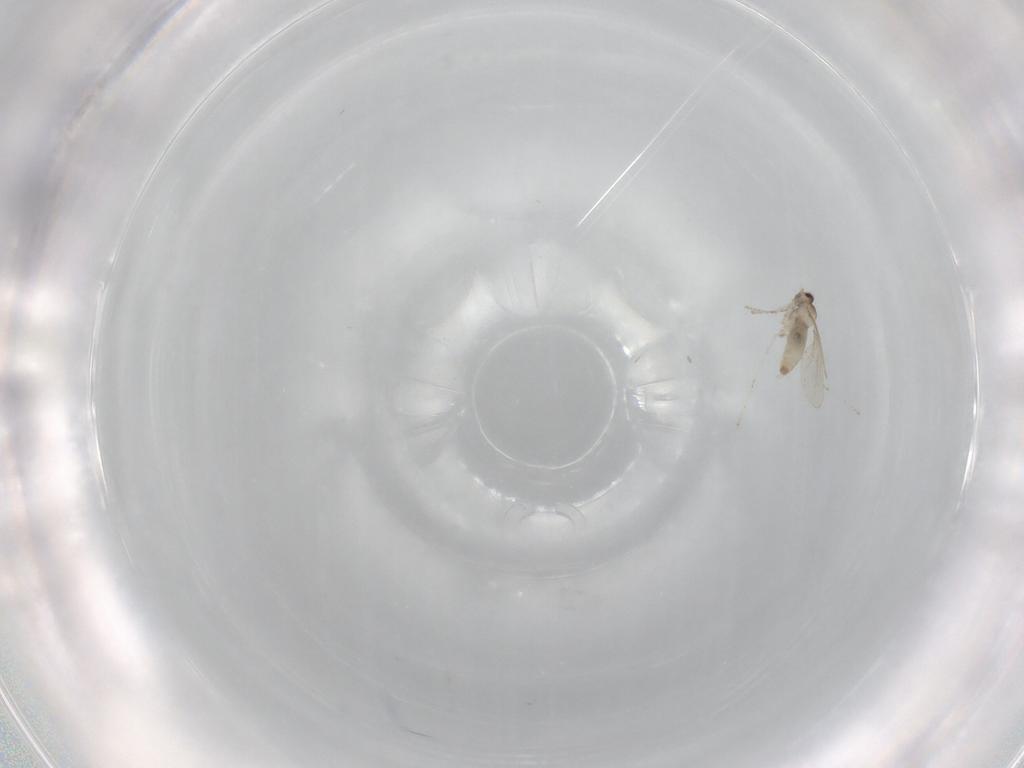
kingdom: Animalia
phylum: Arthropoda
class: Insecta
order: Diptera
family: Cecidomyiidae
